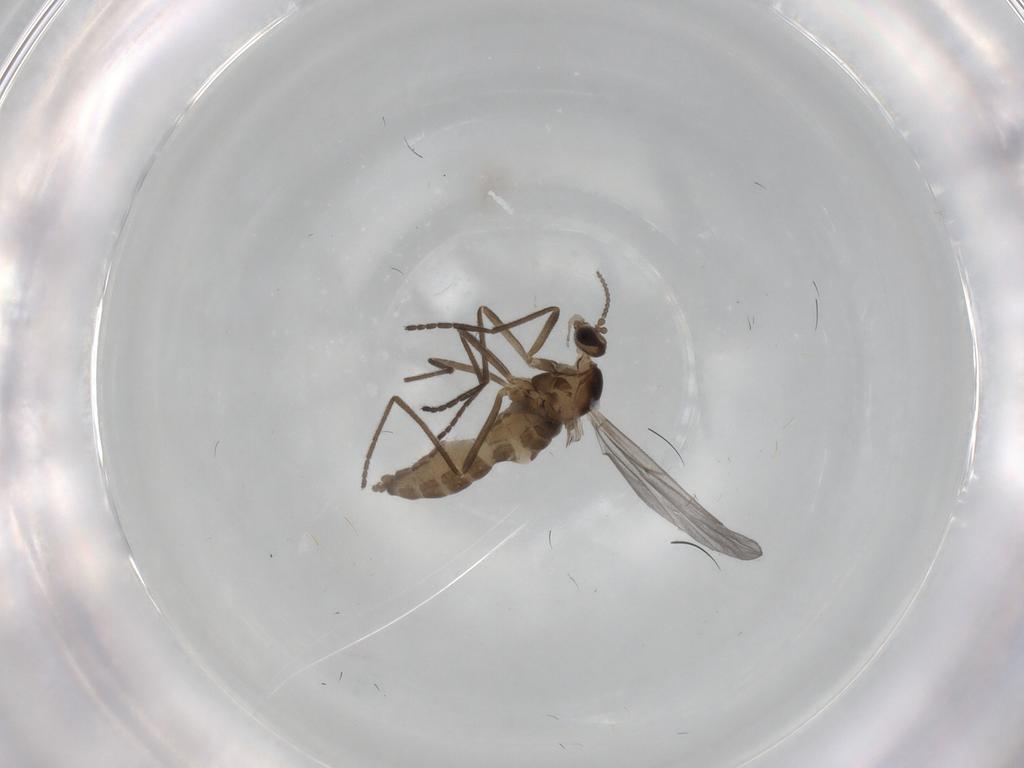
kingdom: Animalia
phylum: Arthropoda
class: Insecta
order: Diptera
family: Cecidomyiidae
